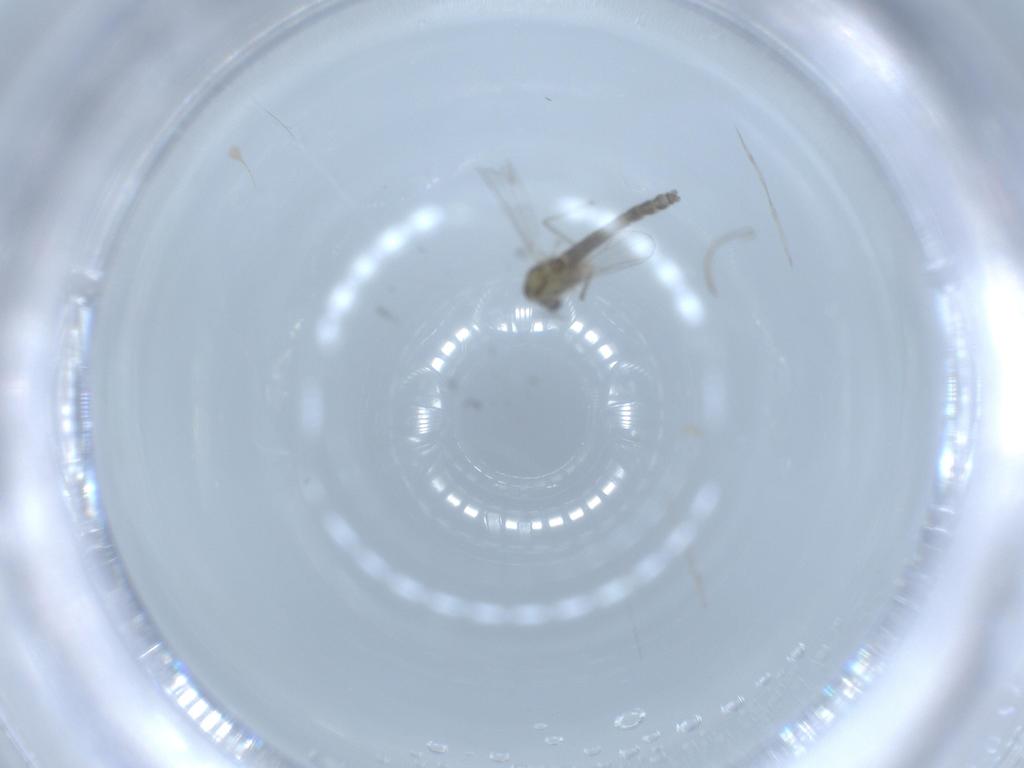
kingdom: Animalia
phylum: Arthropoda
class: Insecta
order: Diptera
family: Chironomidae
